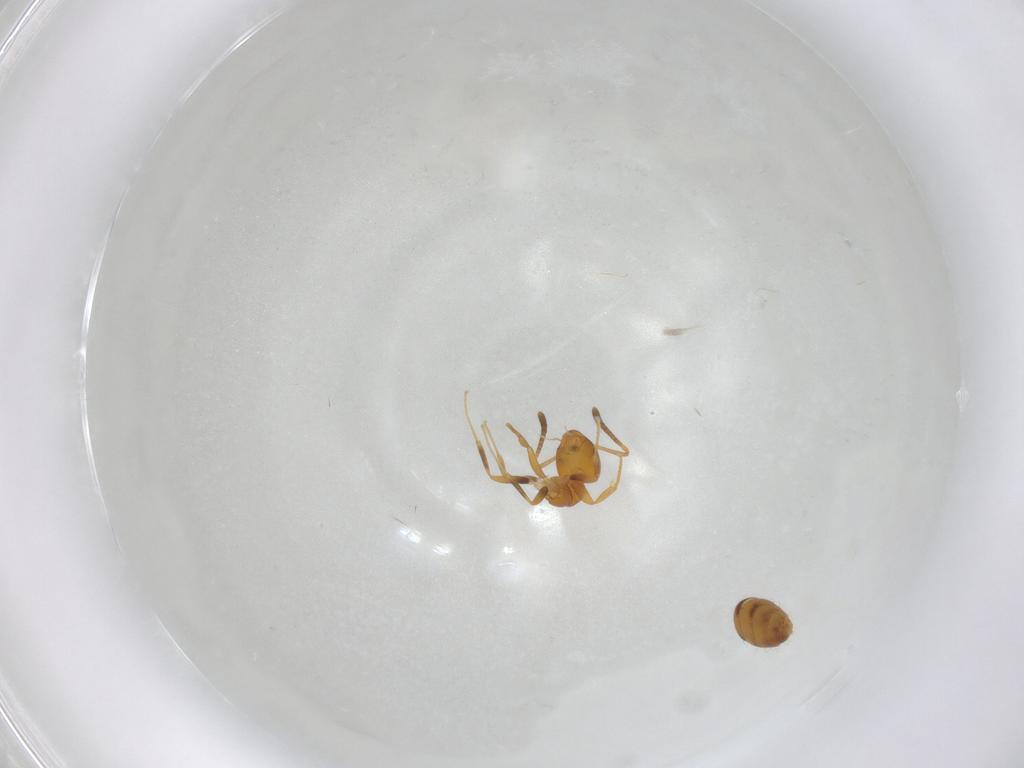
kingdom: Animalia
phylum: Arthropoda
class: Insecta
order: Hymenoptera
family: Formicidae
